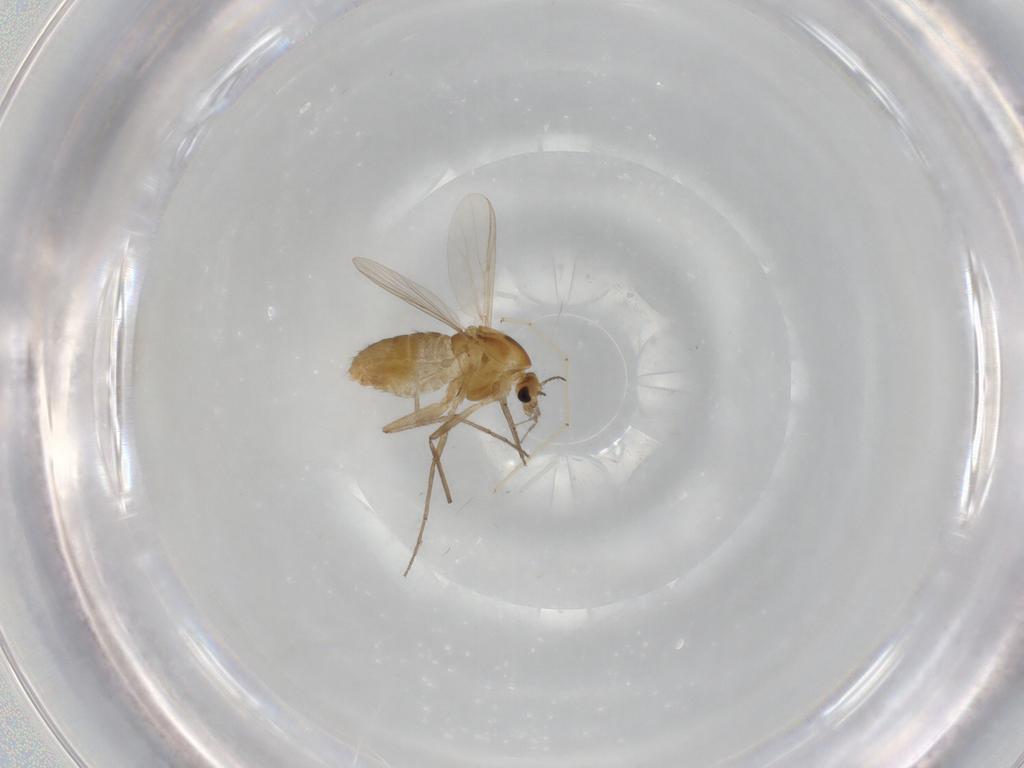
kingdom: Animalia
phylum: Arthropoda
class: Insecta
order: Diptera
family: Chironomidae
